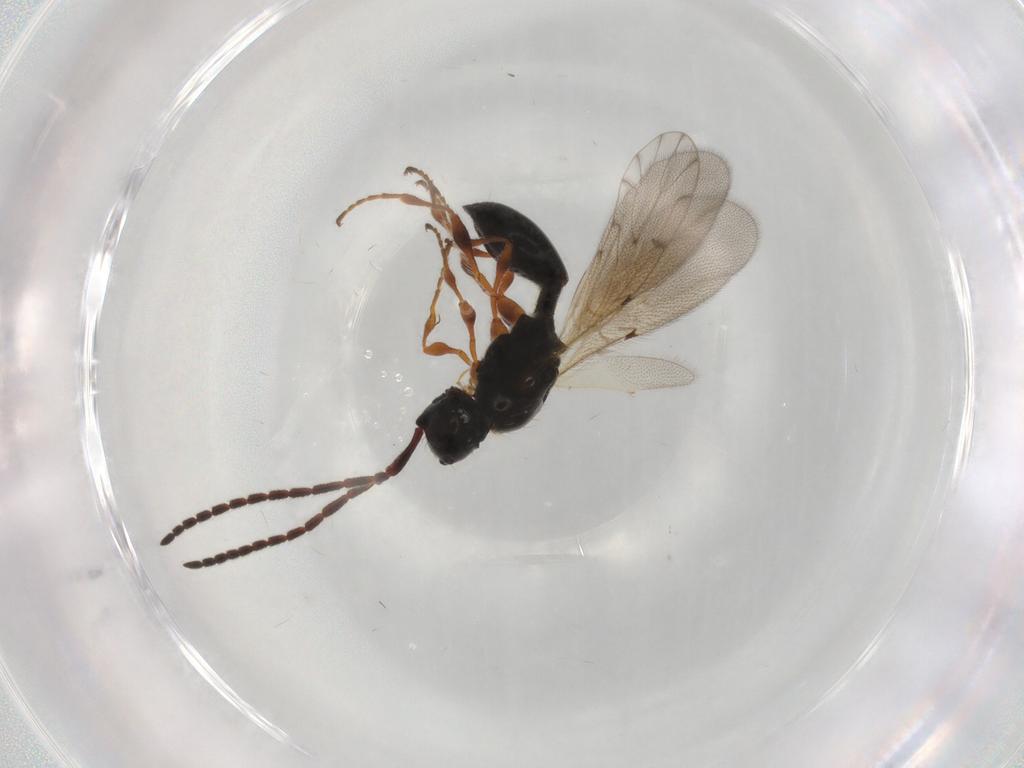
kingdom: Animalia
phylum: Arthropoda
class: Insecta
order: Hymenoptera
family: Diapriidae
